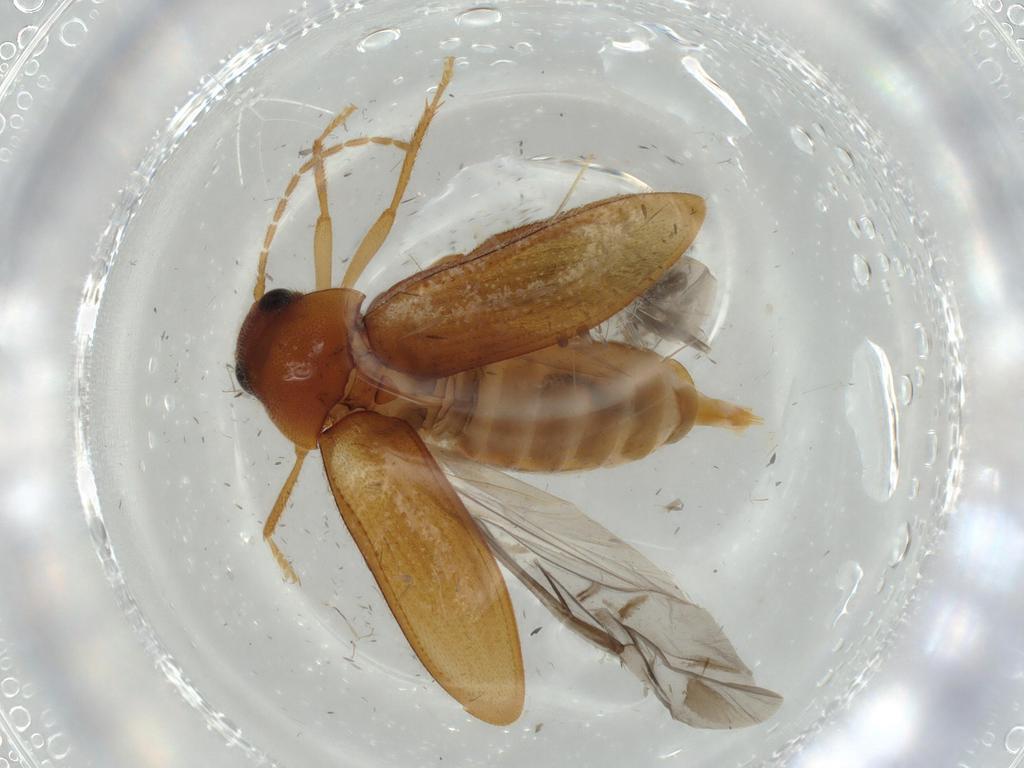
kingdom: Animalia
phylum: Arthropoda
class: Insecta
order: Coleoptera
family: Ptilodactylidae
